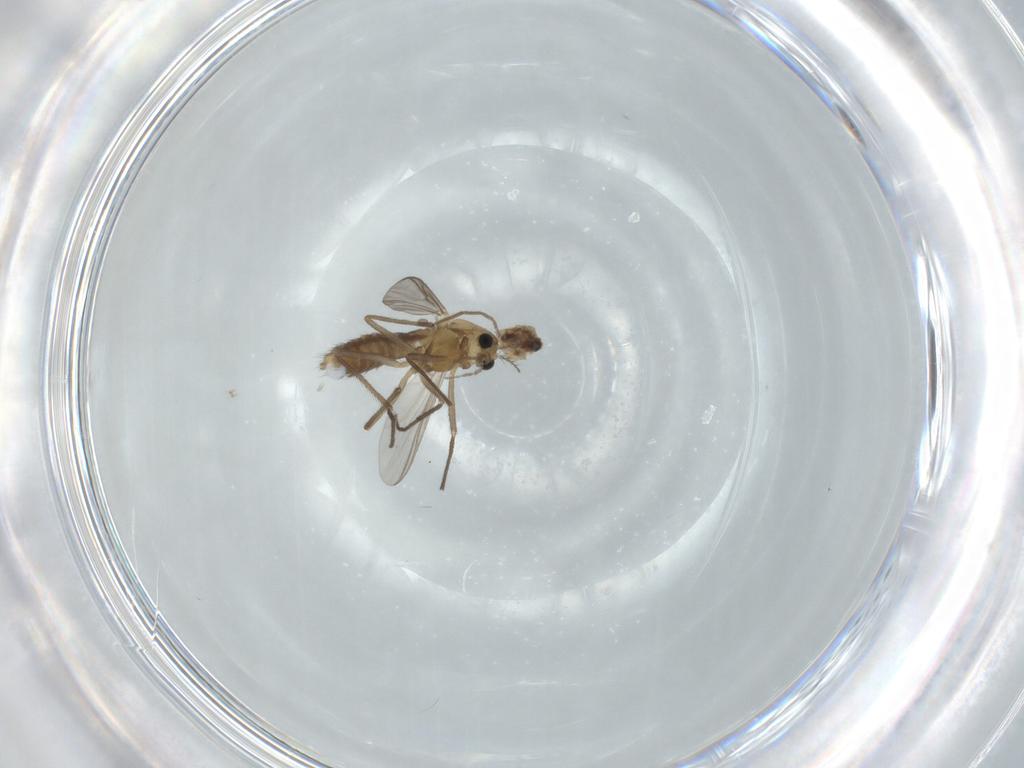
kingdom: Animalia
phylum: Arthropoda
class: Insecta
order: Diptera
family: Chironomidae
